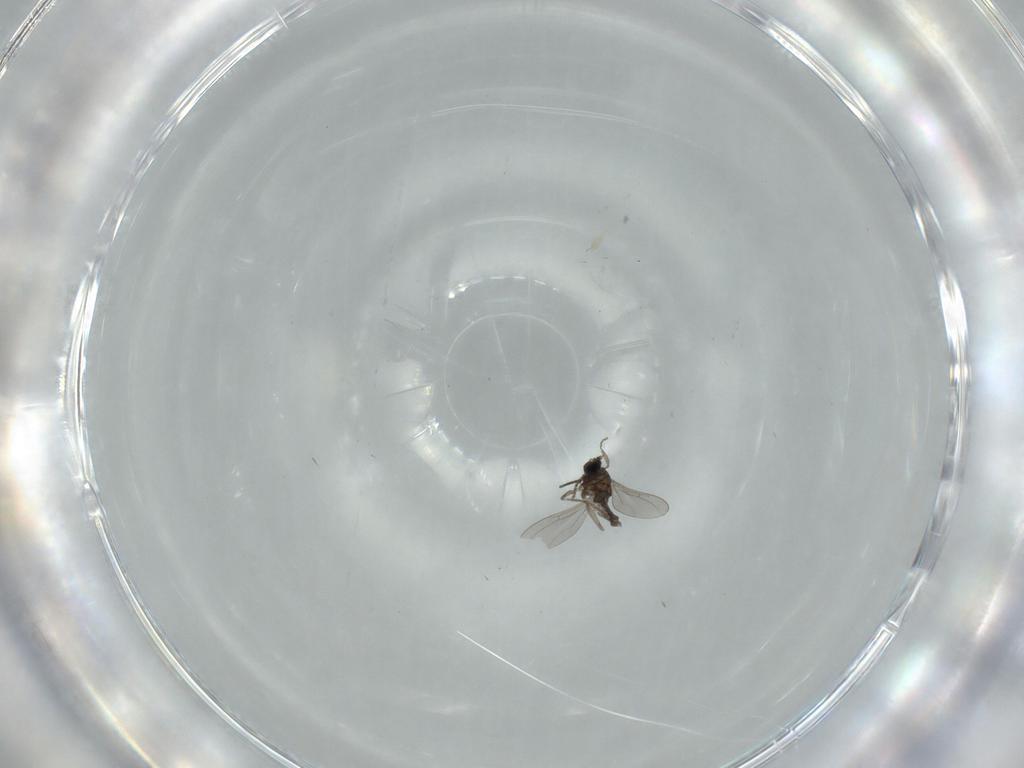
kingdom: Animalia
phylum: Arthropoda
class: Insecta
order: Diptera
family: Cecidomyiidae
